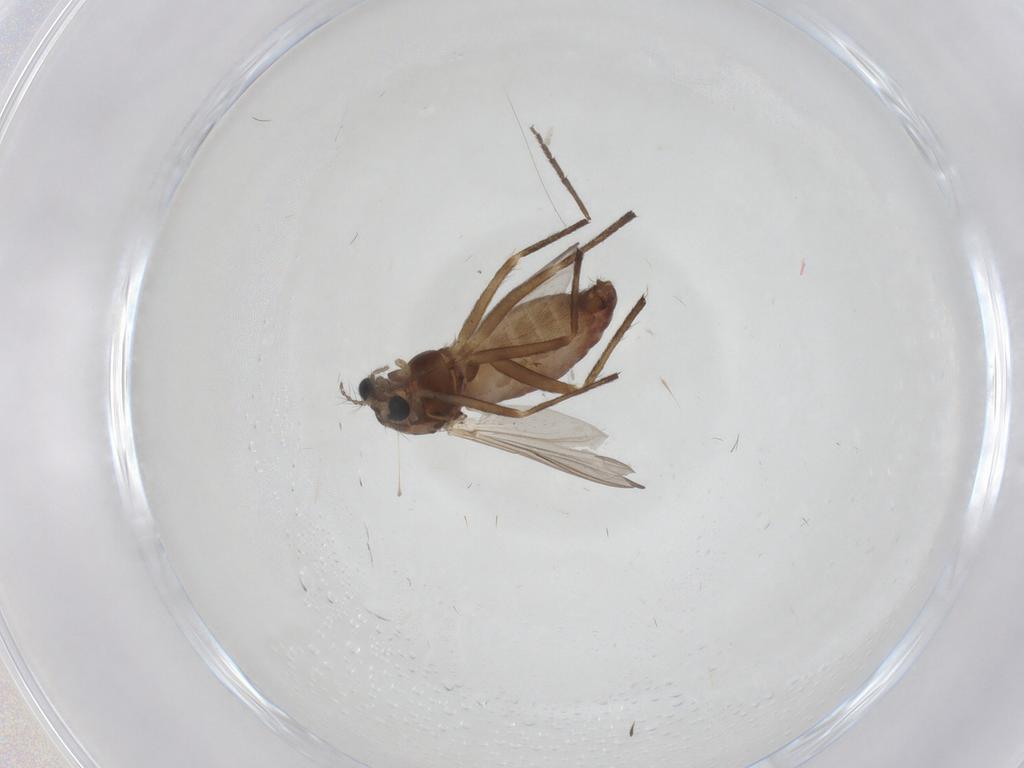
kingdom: Animalia
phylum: Arthropoda
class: Insecta
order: Diptera
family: Chironomidae
